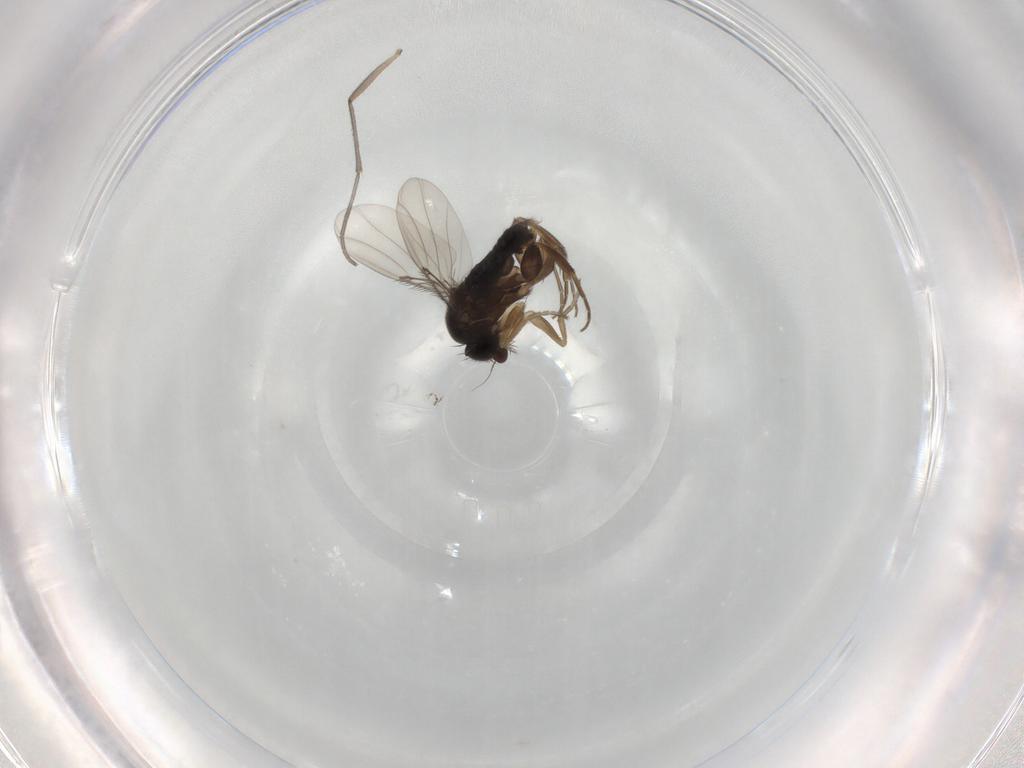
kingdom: Animalia
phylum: Arthropoda
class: Insecta
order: Diptera
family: Phoridae
